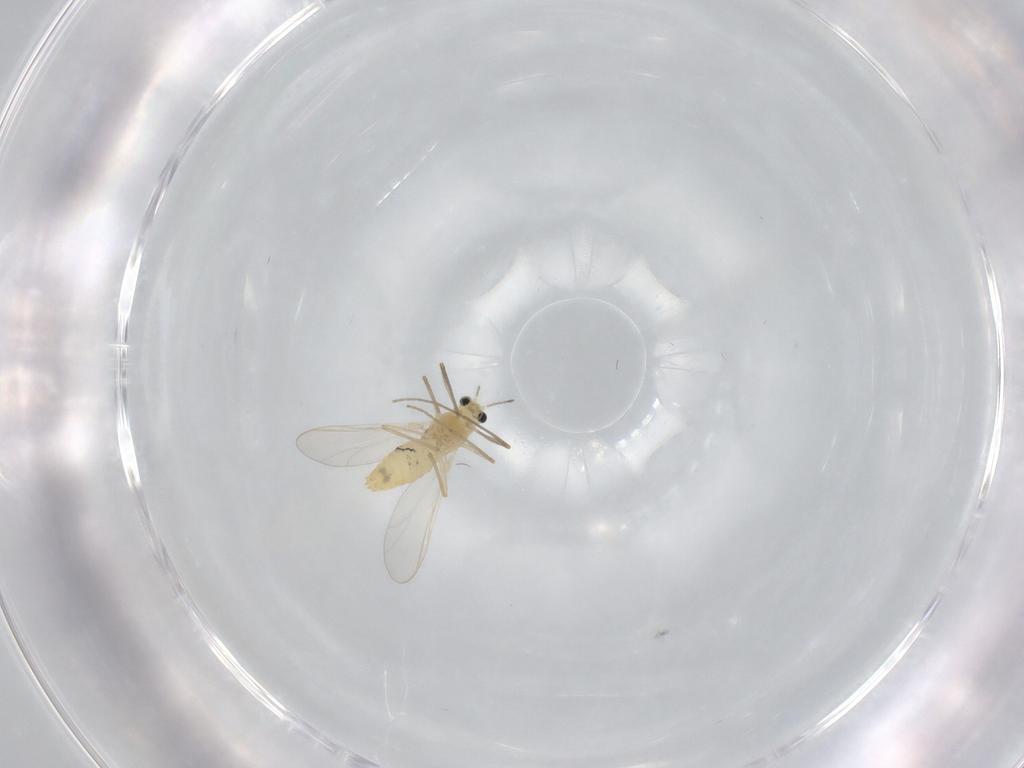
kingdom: Animalia
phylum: Arthropoda
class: Insecta
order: Diptera
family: Chironomidae
